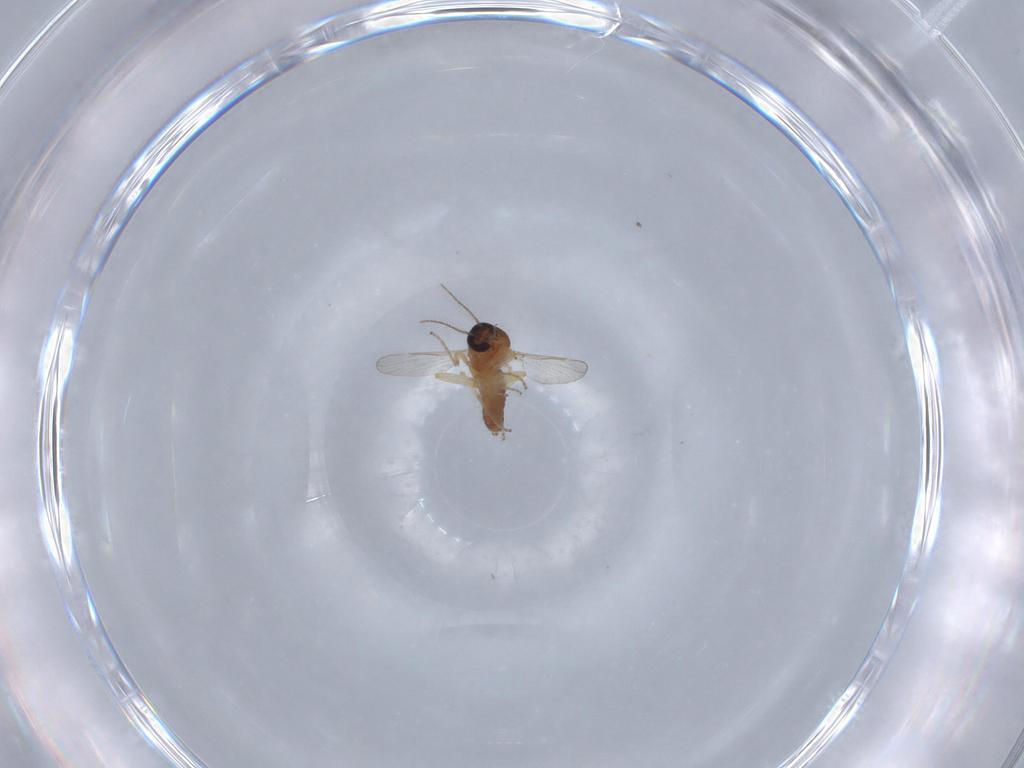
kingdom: Animalia
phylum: Arthropoda
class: Insecta
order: Diptera
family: Ceratopogonidae
